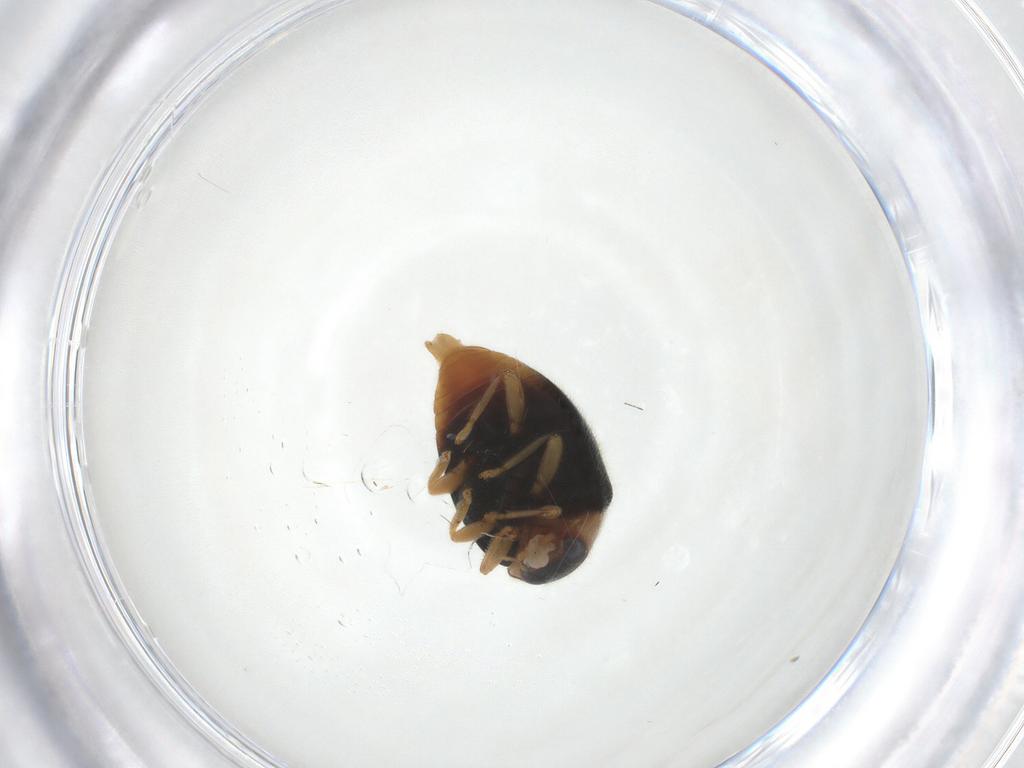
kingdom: Animalia
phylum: Arthropoda
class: Insecta
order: Coleoptera
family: Coccinellidae
